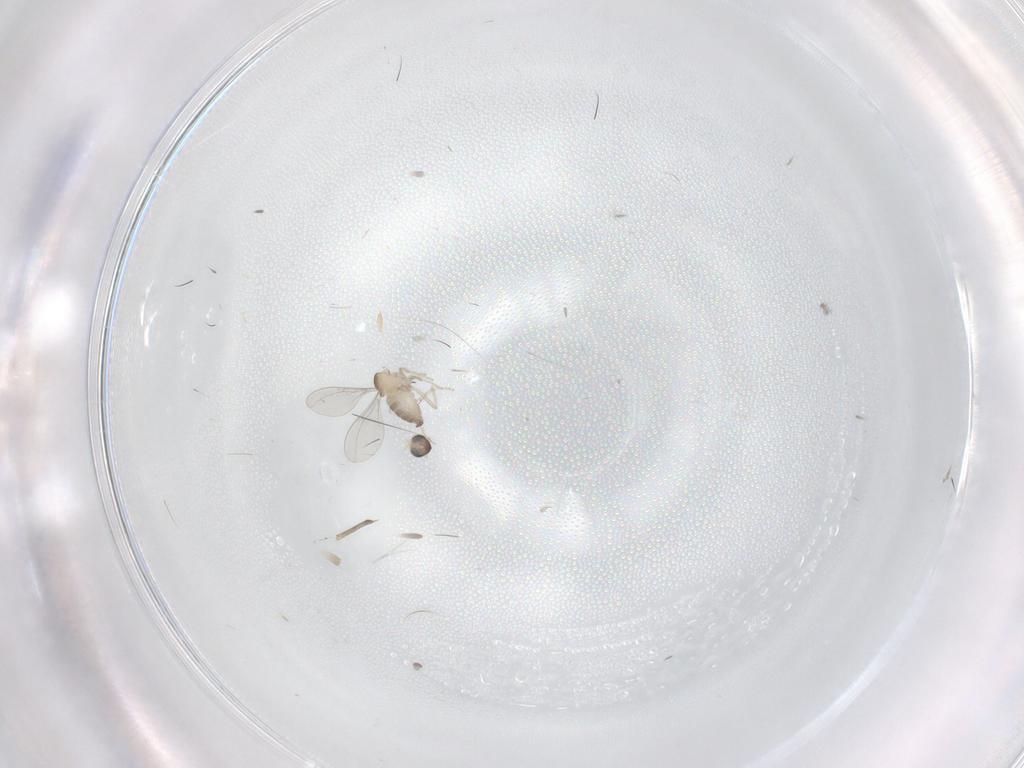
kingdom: Animalia
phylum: Arthropoda
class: Insecta
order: Diptera
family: Cecidomyiidae
